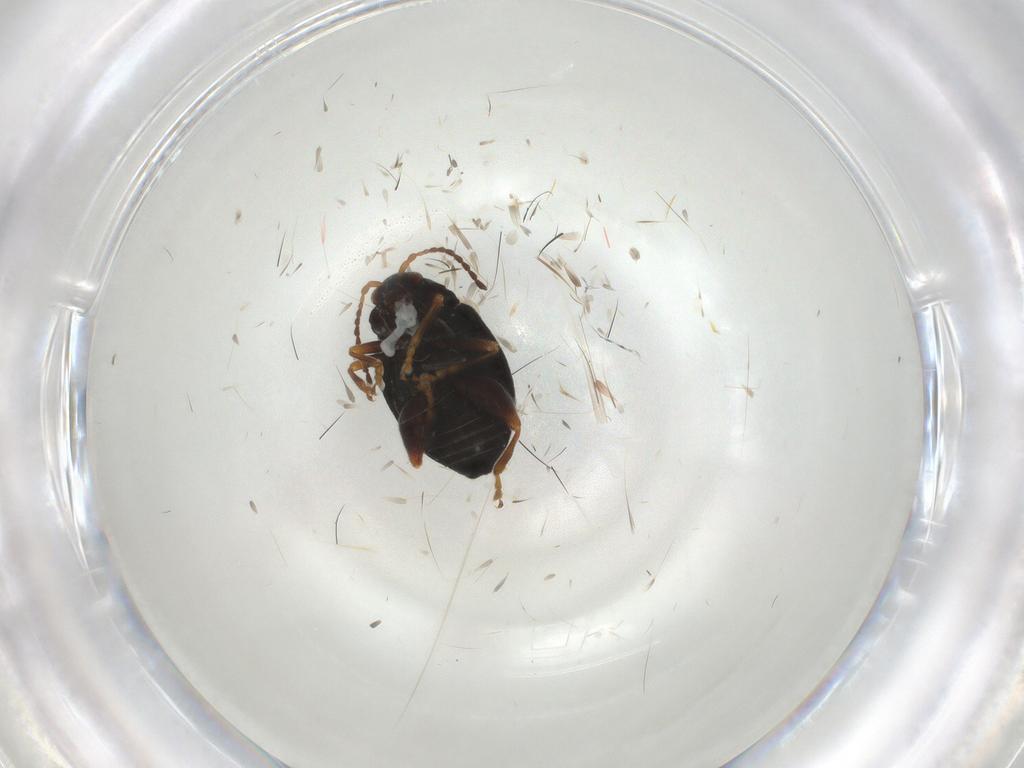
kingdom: Animalia
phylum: Arthropoda
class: Insecta
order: Coleoptera
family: Chrysomelidae
